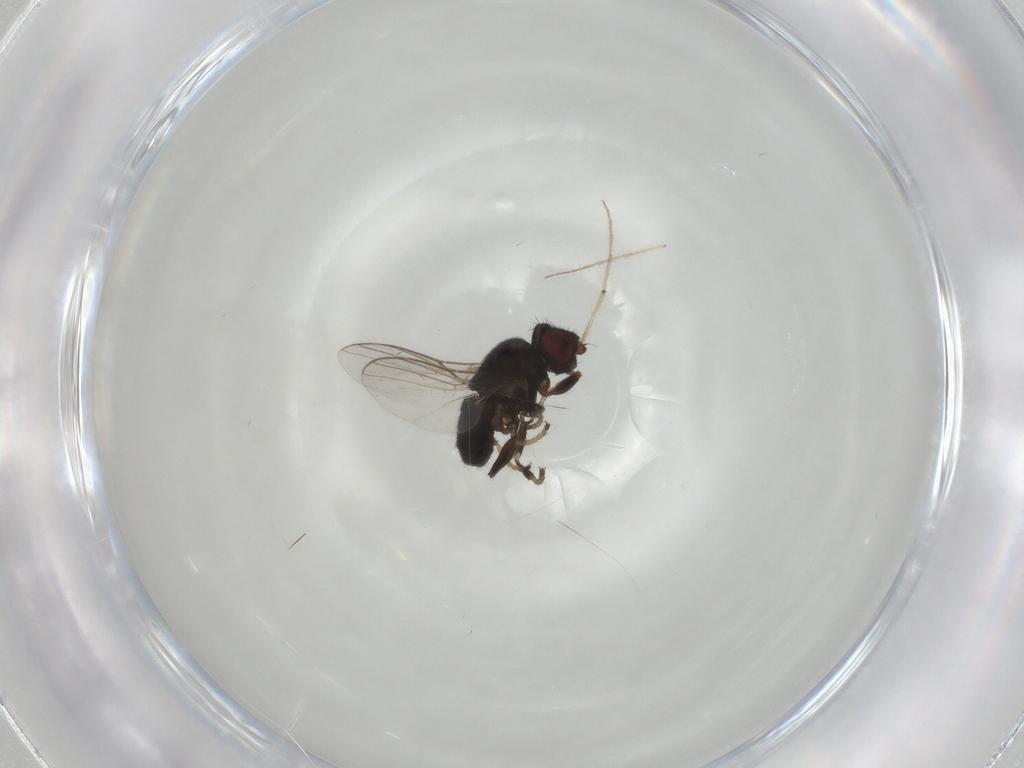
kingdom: Animalia
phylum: Arthropoda
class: Insecta
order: Diptera
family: Chloropidae
